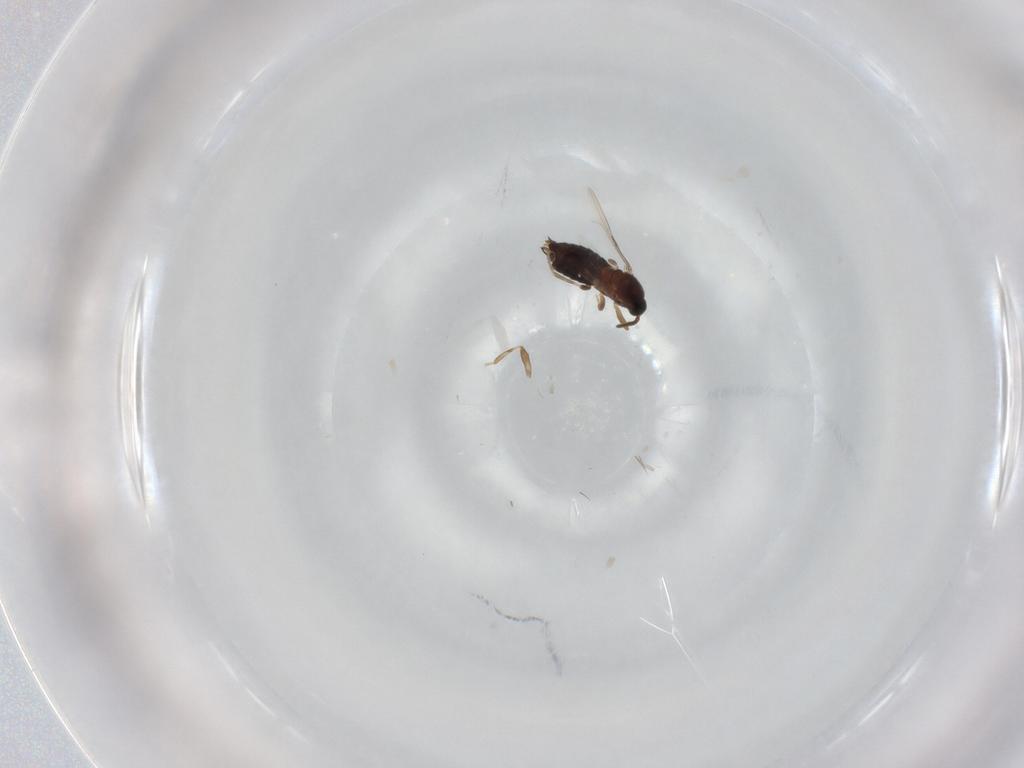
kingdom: Animalia
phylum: Arthropoda
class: Insecta
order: Diptera
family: Scatopsidae
